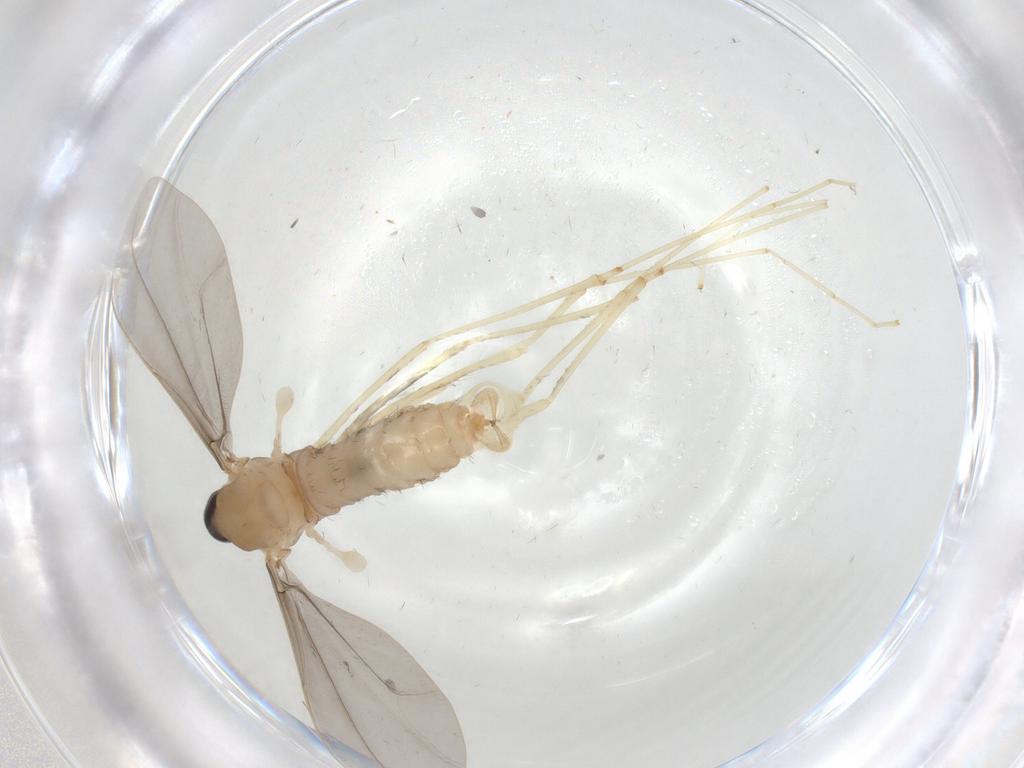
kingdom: Animalia
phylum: Arthropoda
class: Insecta
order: Diptera
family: Cecidomyiidae
